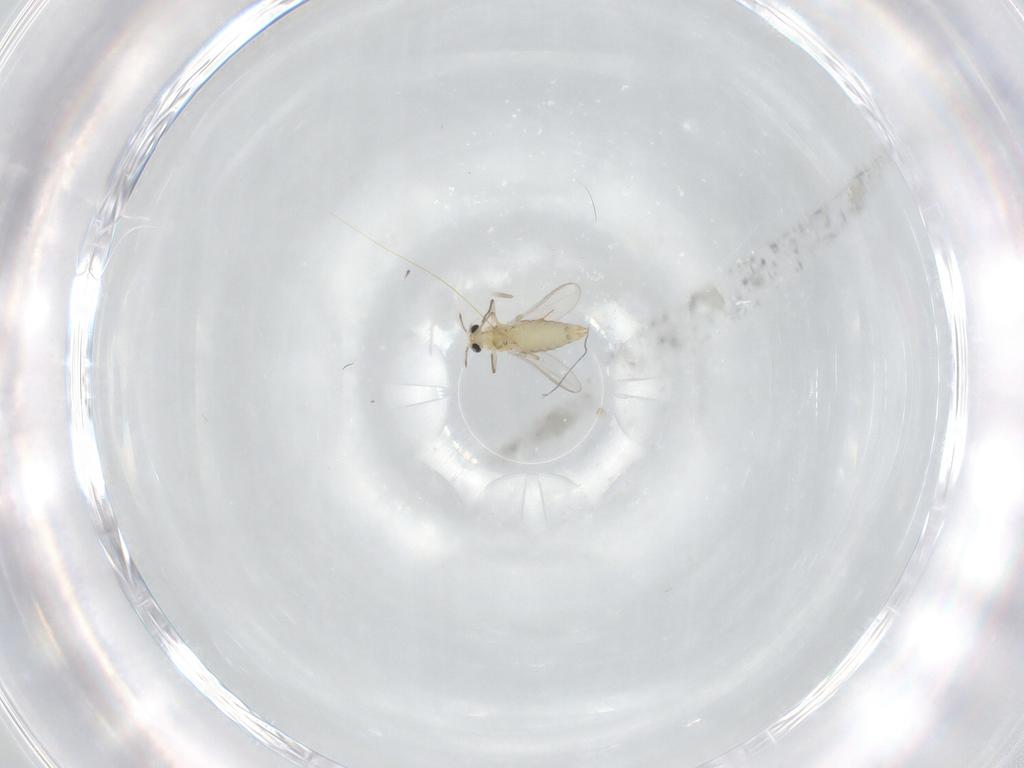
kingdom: Animalia
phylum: Arthropoda
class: Insecta
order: Diptera
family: Chironomidae
